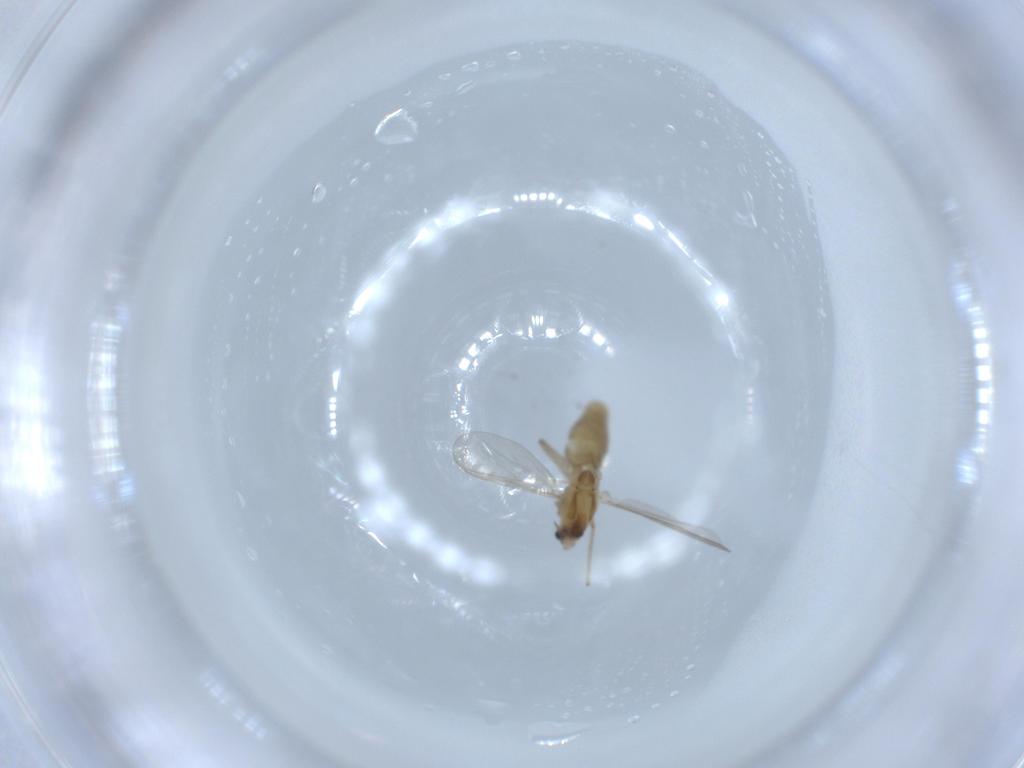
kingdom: Animalia
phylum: Arthropoda
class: Insecta
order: Diptera
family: Chironomidae
